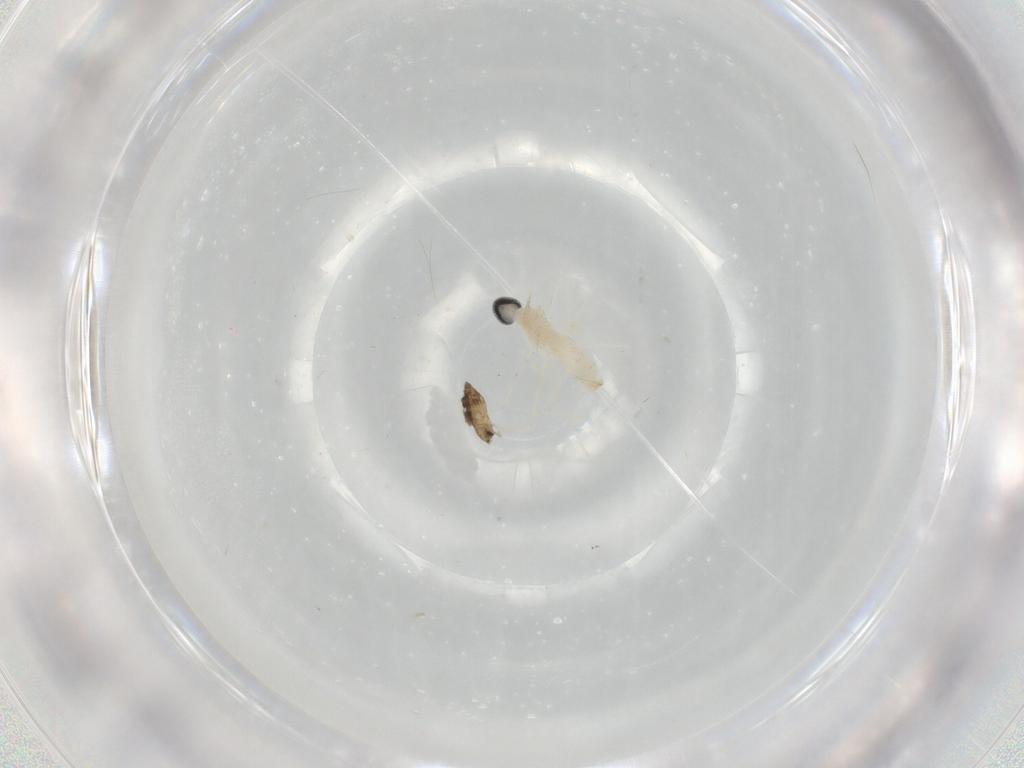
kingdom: Animalia
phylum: Arthropoda
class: Insecta
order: Diptera
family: Cecidomyiidae
